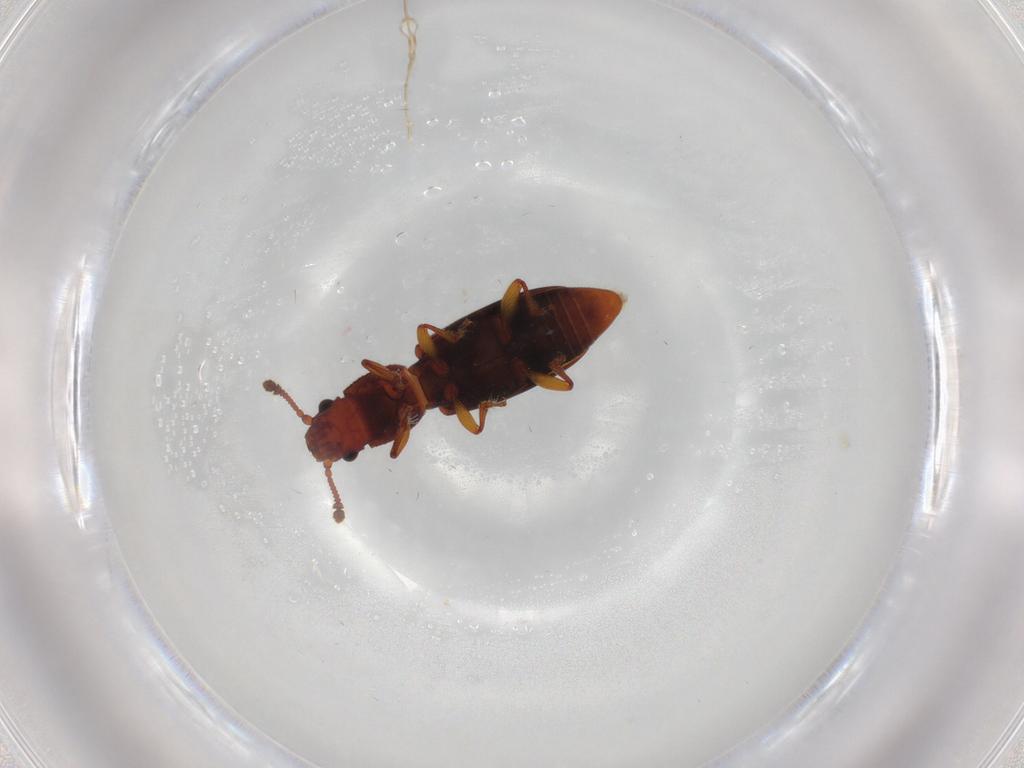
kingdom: Animalia
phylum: Arthropoda
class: Insecta
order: Coleoptera
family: Monotomidae
